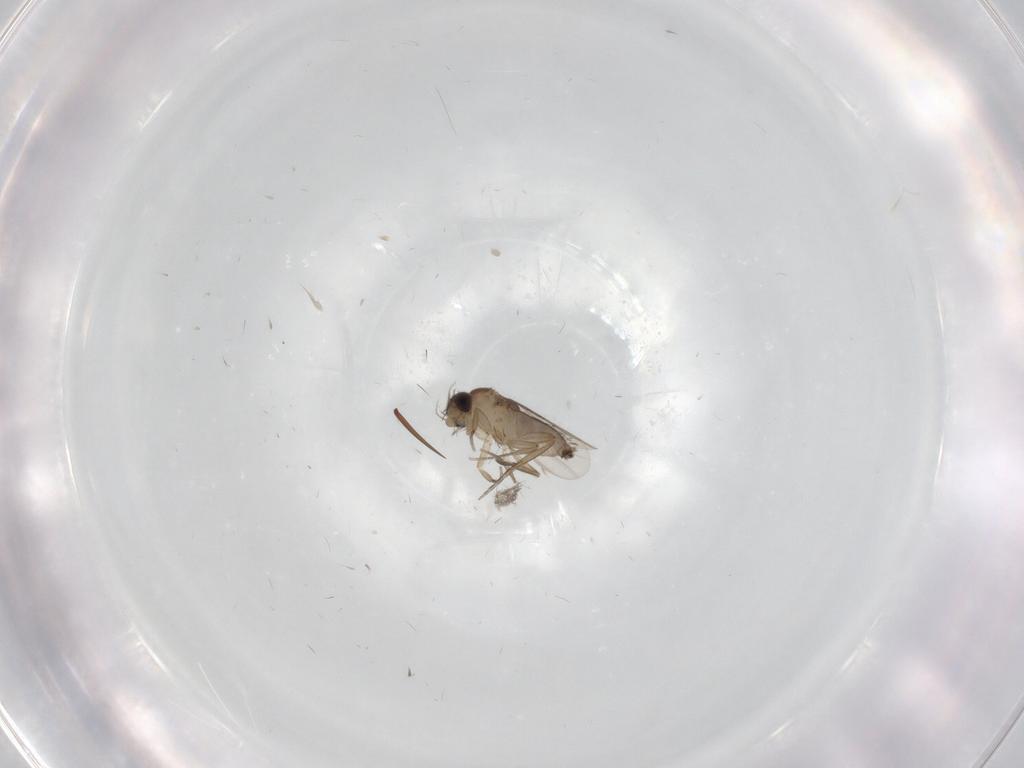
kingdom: Animalia
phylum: Arthropoda
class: Insecta
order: Diptera
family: Phoridae
